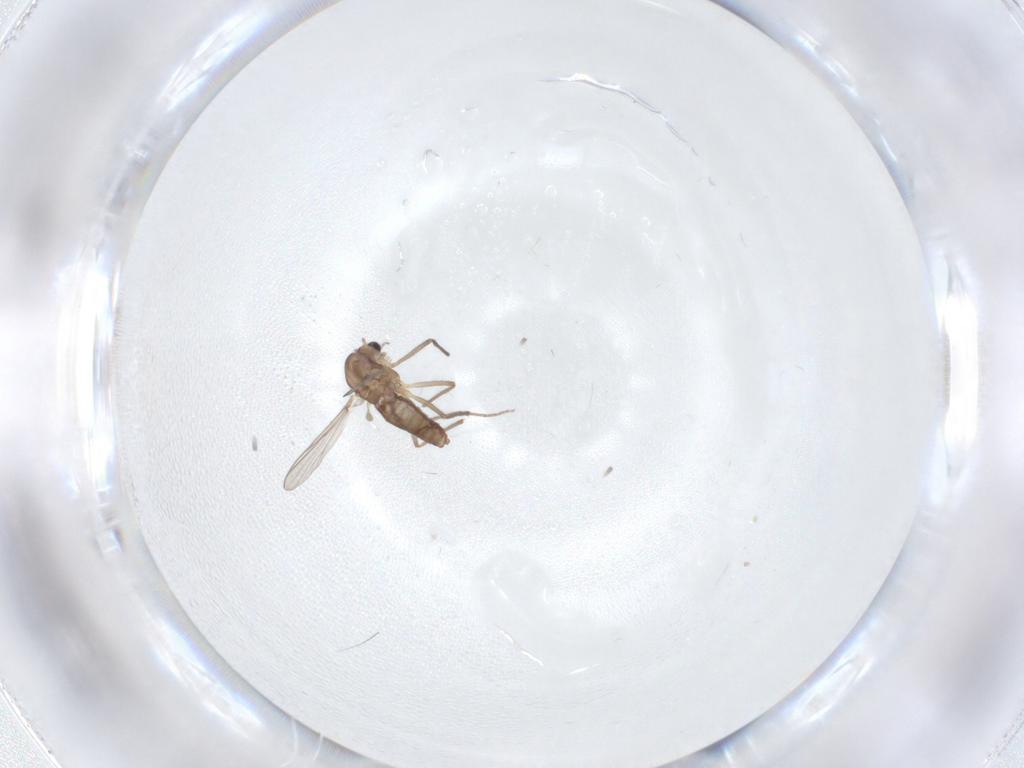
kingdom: Animalia
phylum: Arthropoda
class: Insecta
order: Diptera
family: Chironomidae
